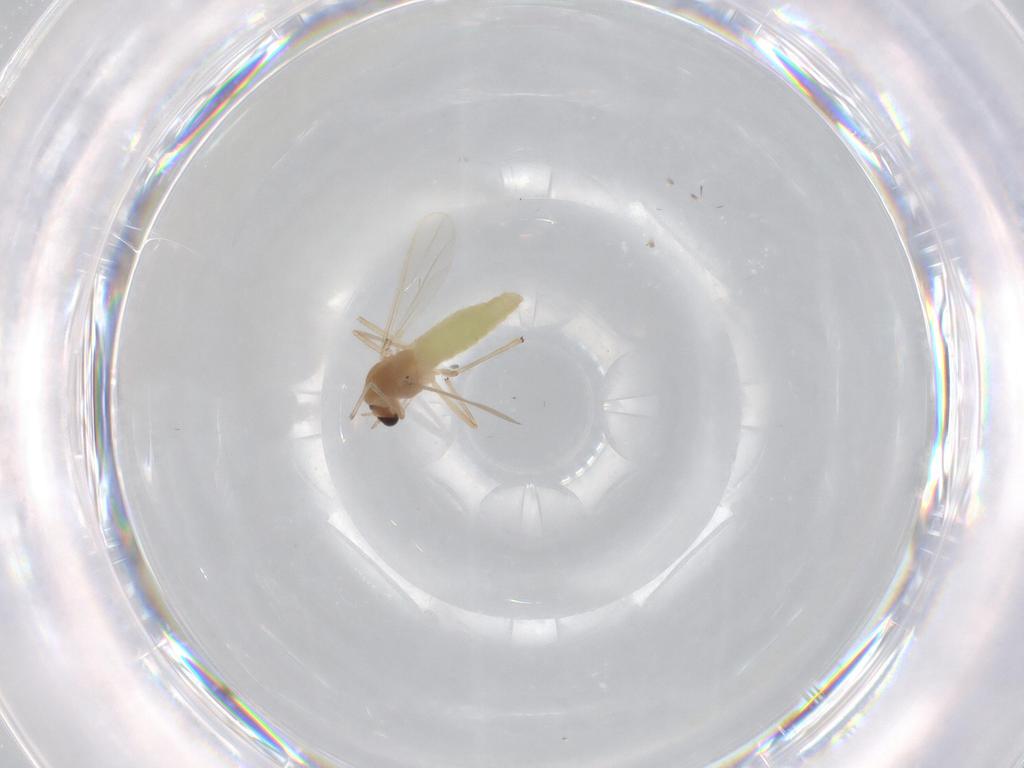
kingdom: Animalia
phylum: Arthropoda
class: Insecta
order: Diptera
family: Chironomidae
